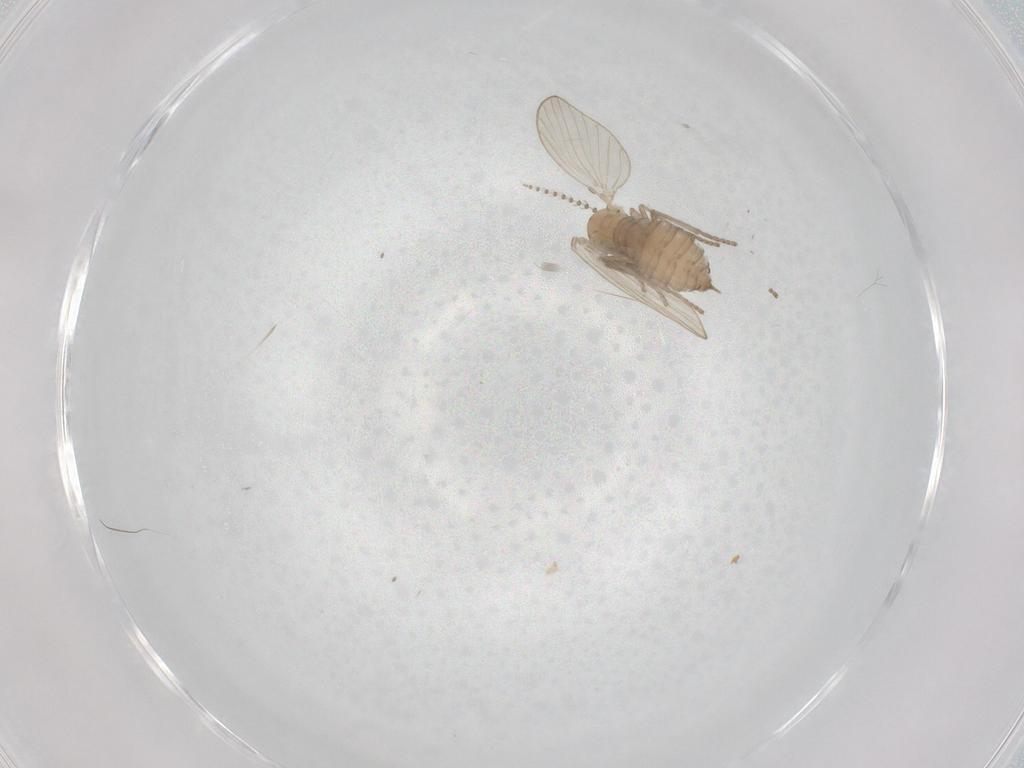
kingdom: Animalia
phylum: Arthropoda
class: Insecta
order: Diptera
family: Psychodidae
